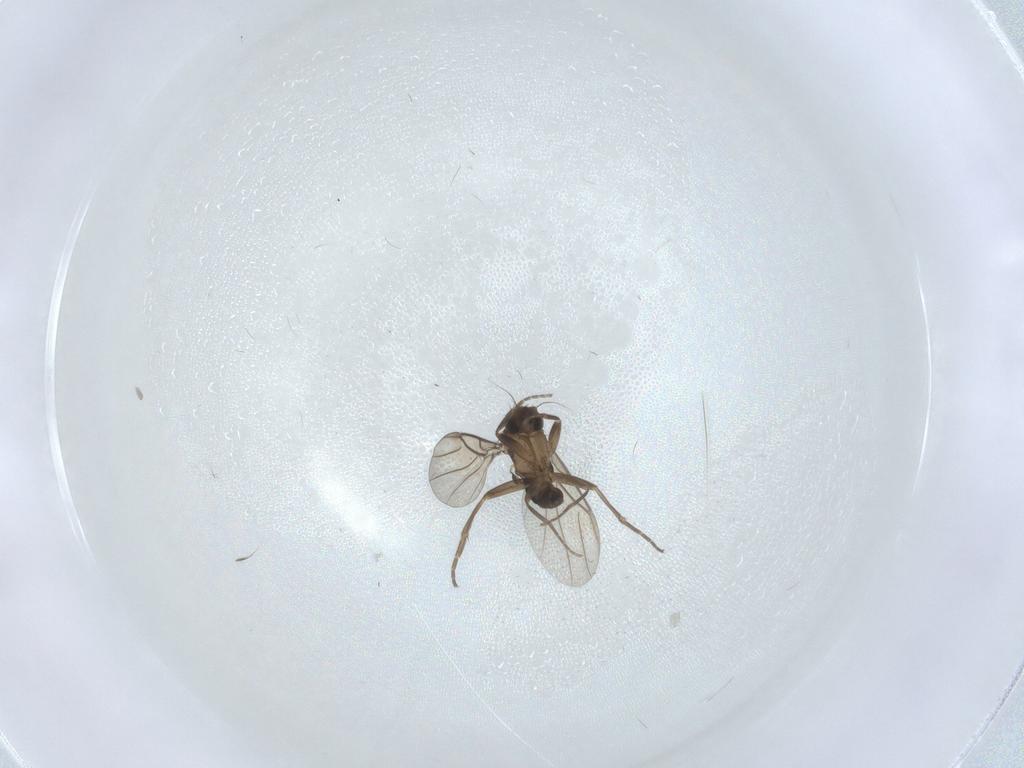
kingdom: Animalia
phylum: Arthropoda
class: Insecta
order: Diptera
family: Phoridae
